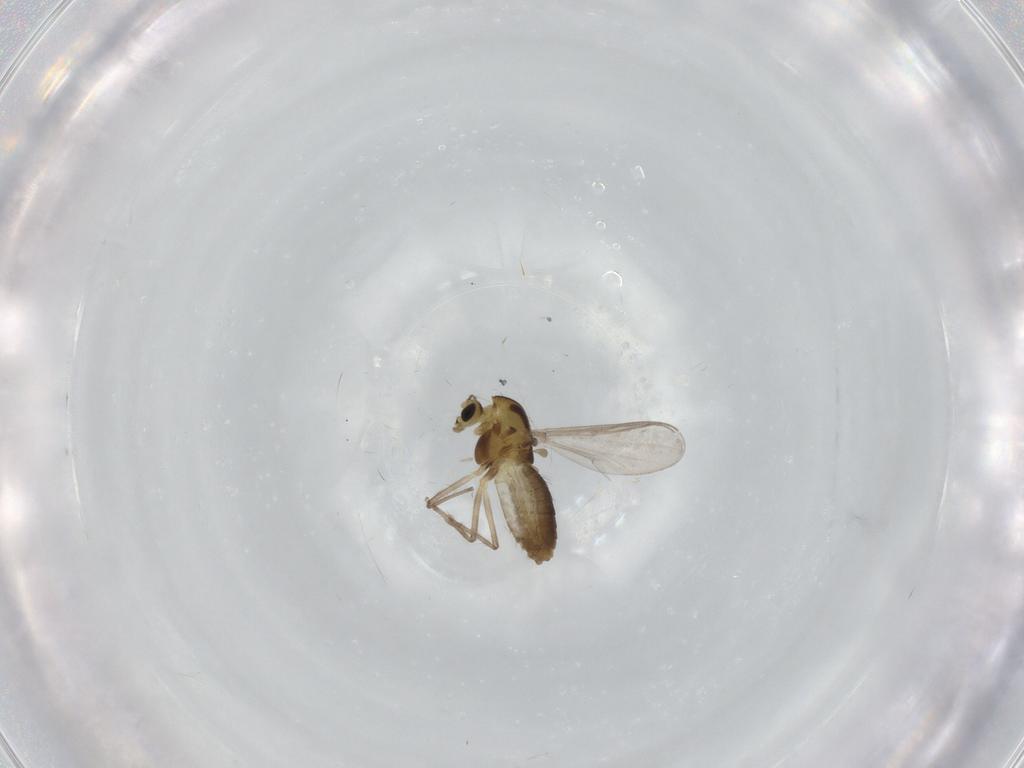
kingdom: Animalia
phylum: Arthropoda
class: Insecta
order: Diptera
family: Chironomidae
